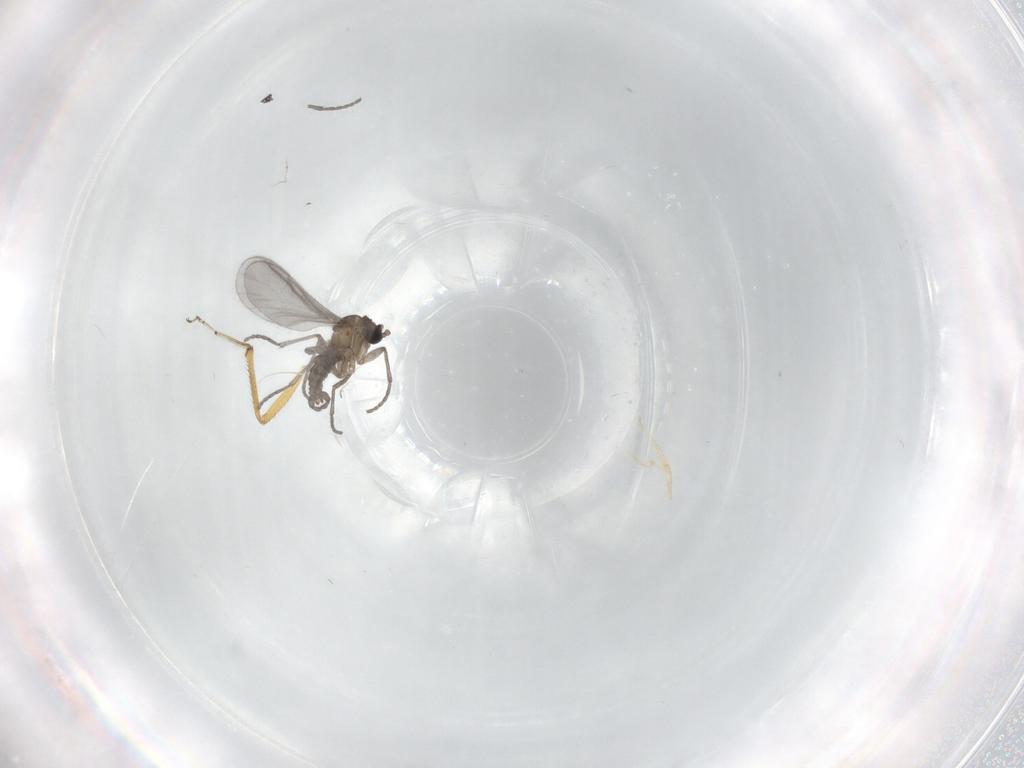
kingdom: Animalia
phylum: Arthropoda
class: Insecta
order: Diptera
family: Sciaridae
